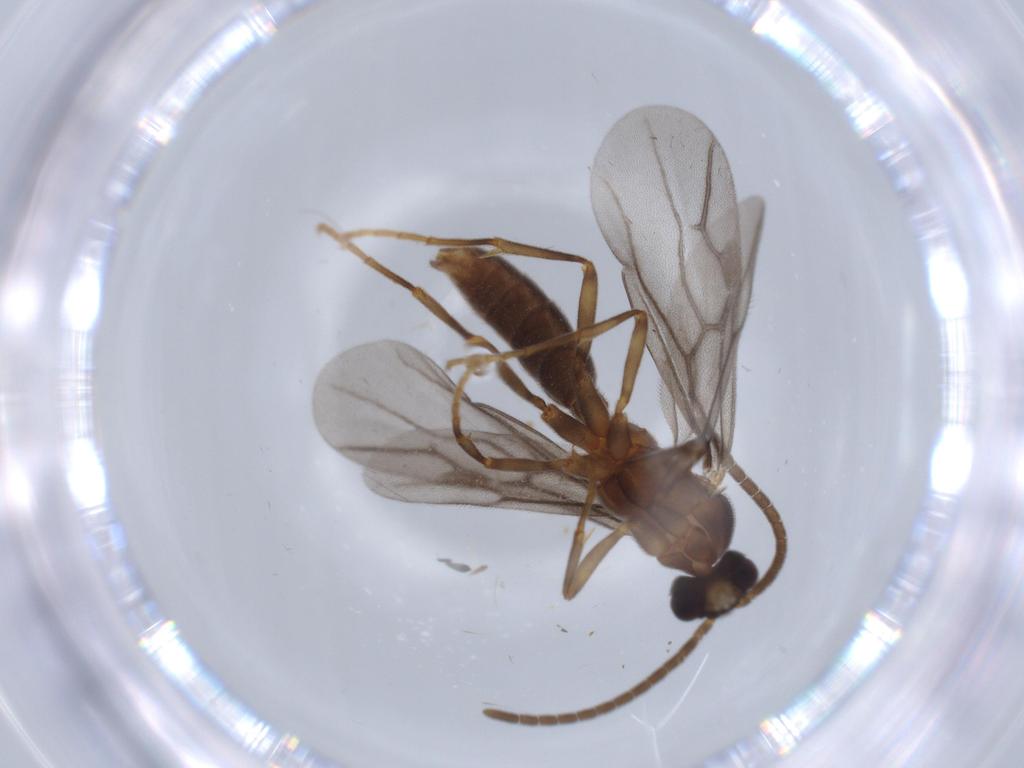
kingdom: Animalia
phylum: Arthropoda
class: Insecta
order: Hymenoptera
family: Formicidae
